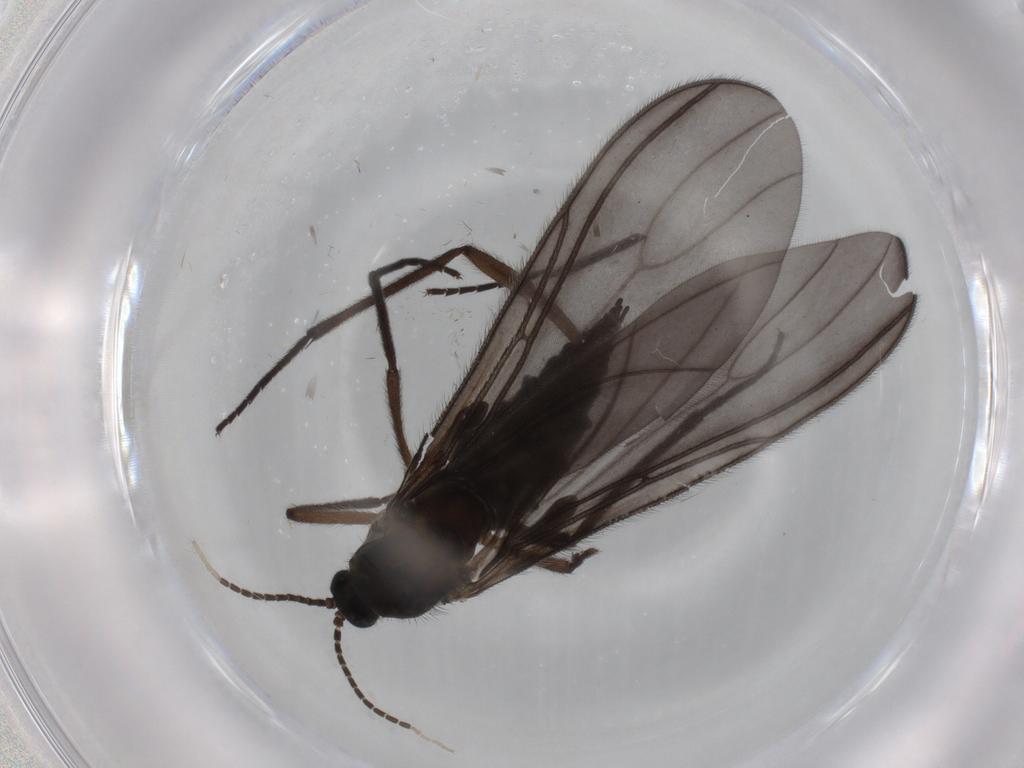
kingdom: Animalia
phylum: Arthropoda
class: Insecta
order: Diptera
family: Sciaridae
